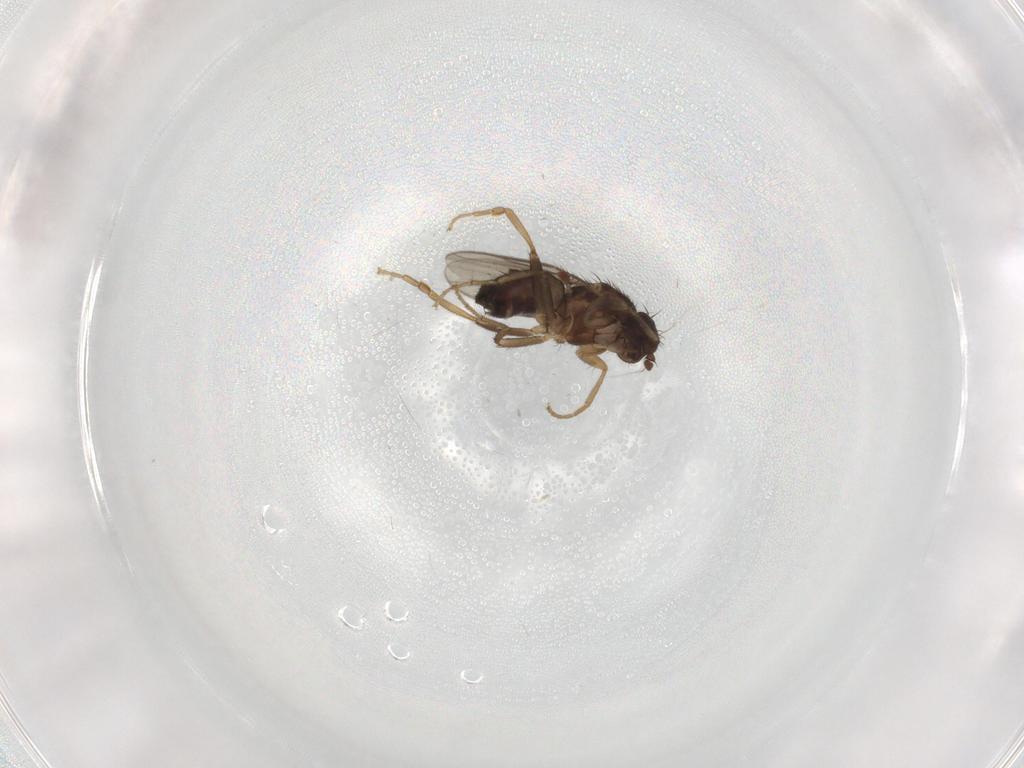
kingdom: Animalia
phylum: Arthropoda
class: Insecta
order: Diptera
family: Sphaeroceridae
